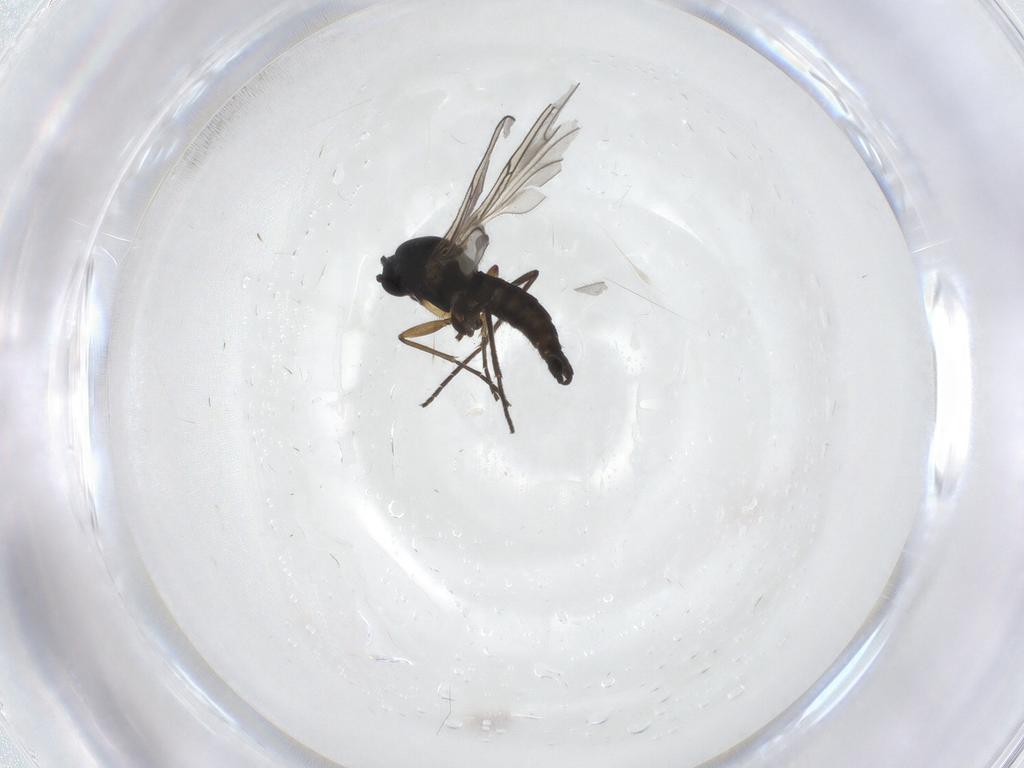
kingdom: Animalia
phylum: Arthropoda
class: Insecta
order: Diptera
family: Sciaridae
